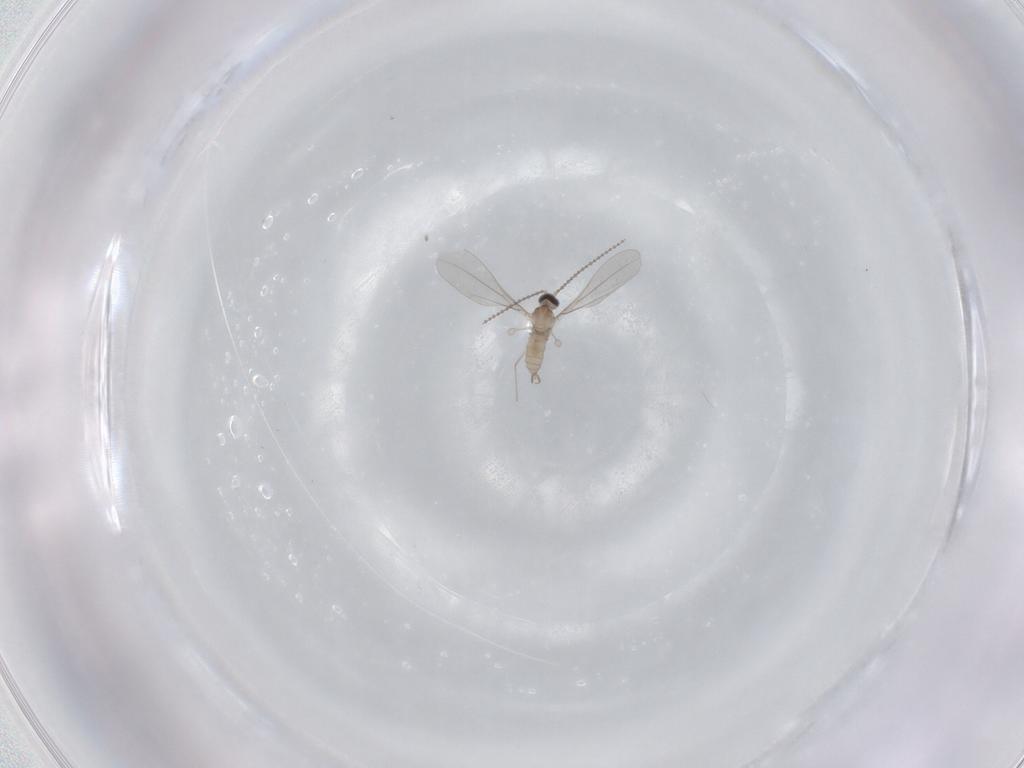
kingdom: Animalia
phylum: Arthropoda
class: Insecta
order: Diptera
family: Cecidomyiidae
